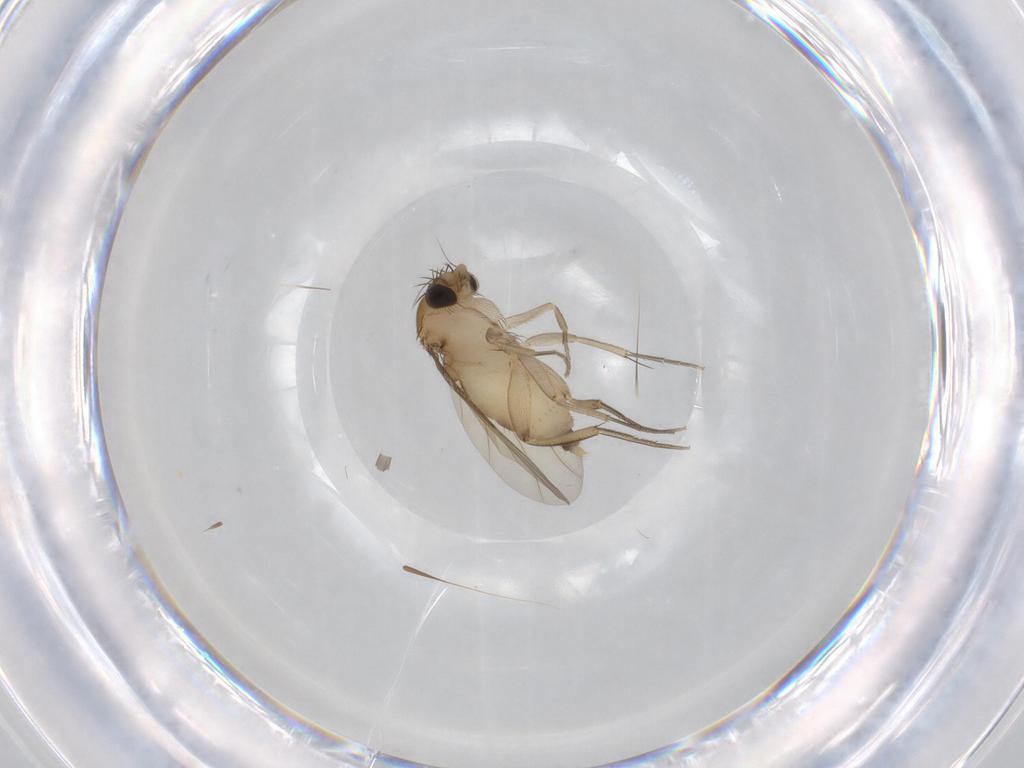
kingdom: Animalia
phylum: Arthropoda
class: Insecta
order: Diptera
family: Phoridae
